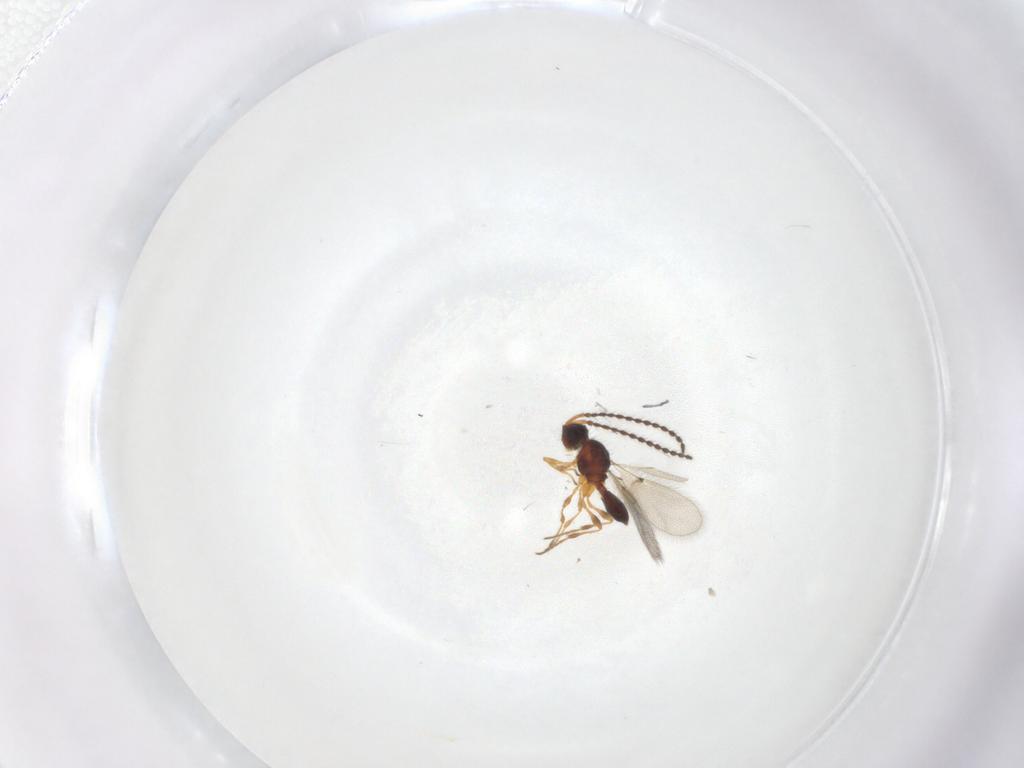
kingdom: Animalia
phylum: Arthropoda
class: Insecta
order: Hymenoptera
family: Diapriidae
